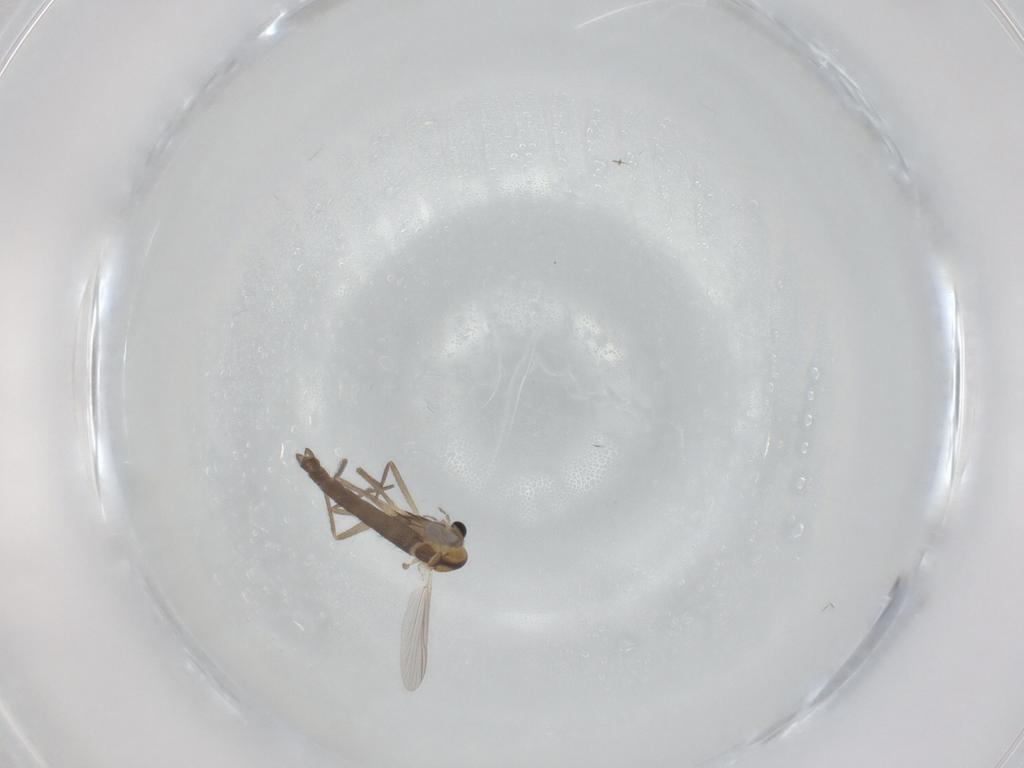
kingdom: Animalia
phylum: Arthropoda
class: Insecta
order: Diptera
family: Chironomidae
